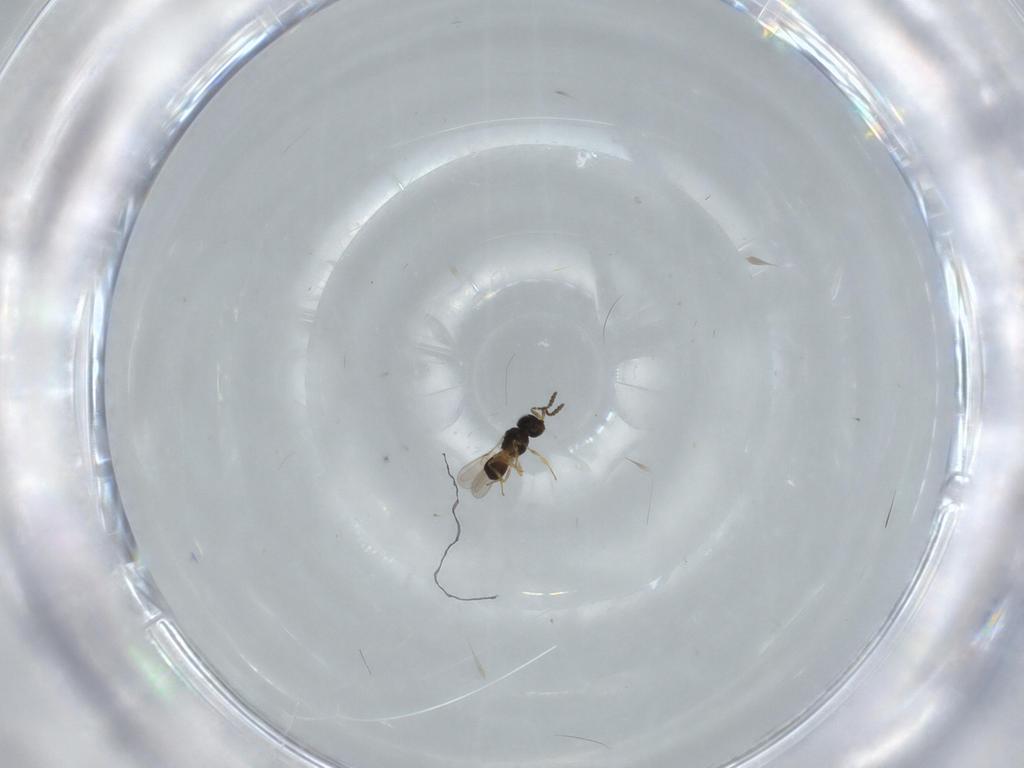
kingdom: Animalia
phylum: Arthropoda
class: Insecta
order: Hymenoptera
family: Scelionidae
